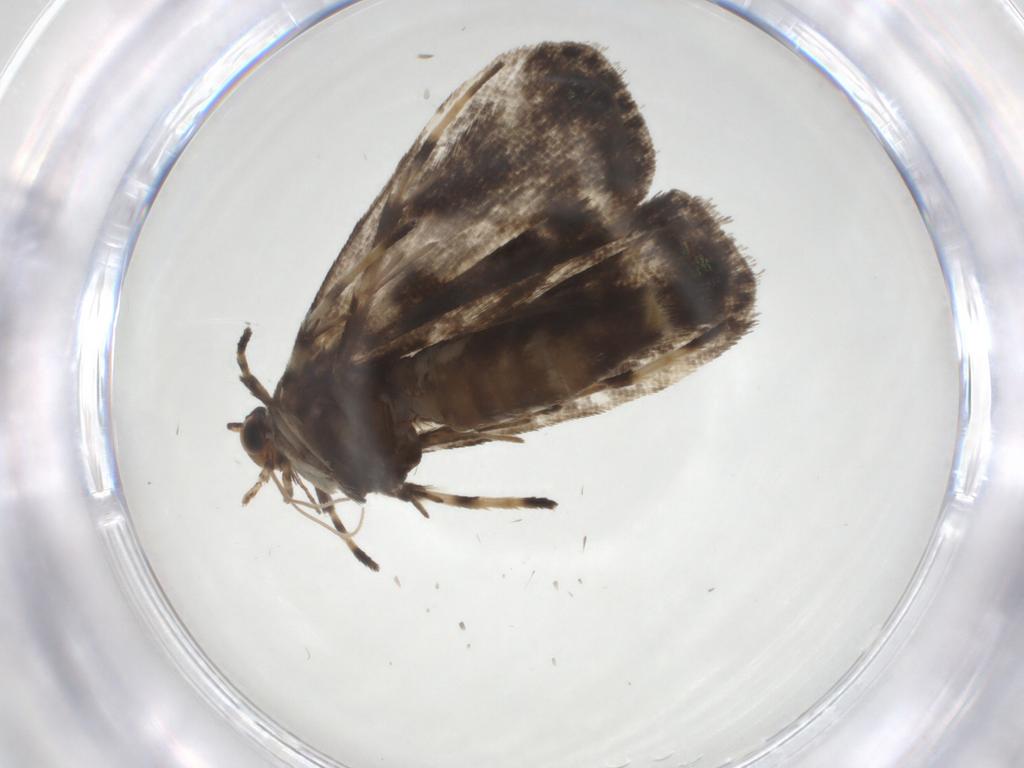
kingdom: Animalia
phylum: Arthropoda
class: Insecta
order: Lepidoptera
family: Choreutidae
